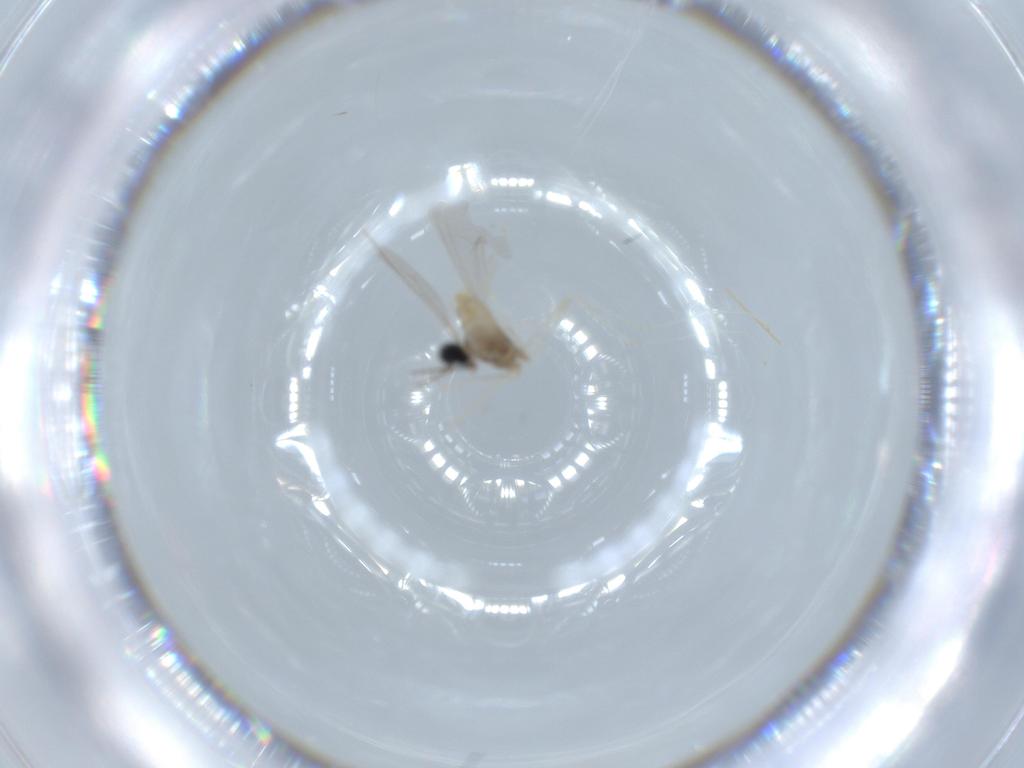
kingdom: Animalia
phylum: Arthropoda
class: Insecta
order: Diptera
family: Cecidomyiidae
